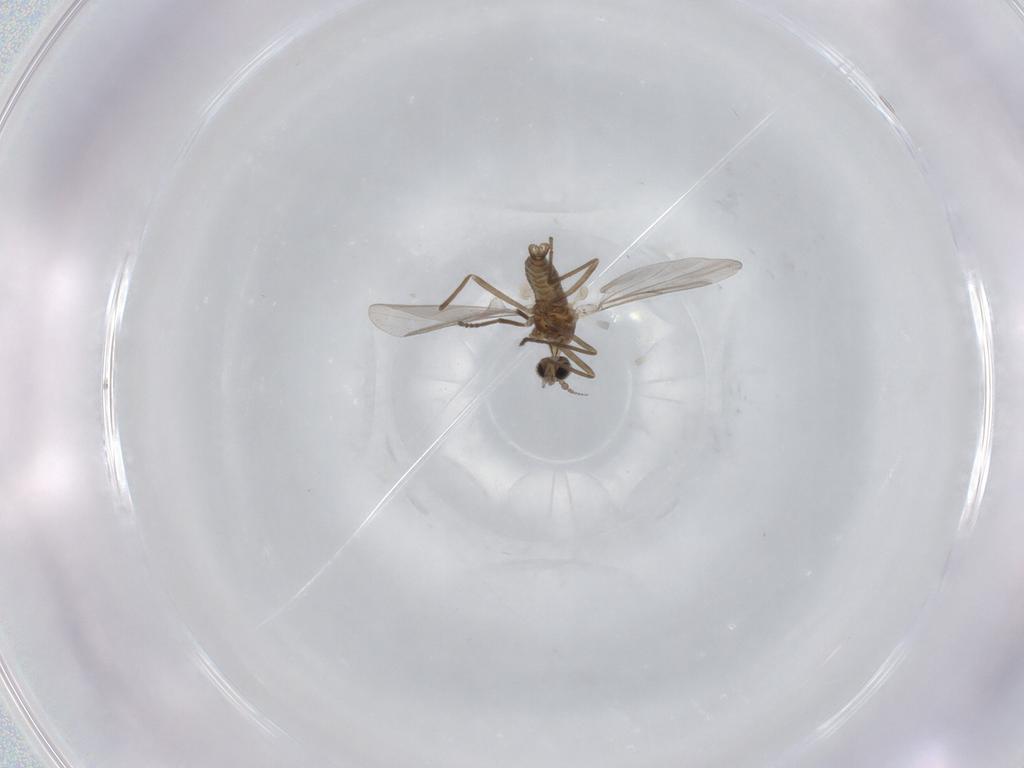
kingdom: Animalia
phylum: Arthropoda
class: Insecta
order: Diptera
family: Cecidomyiidae
